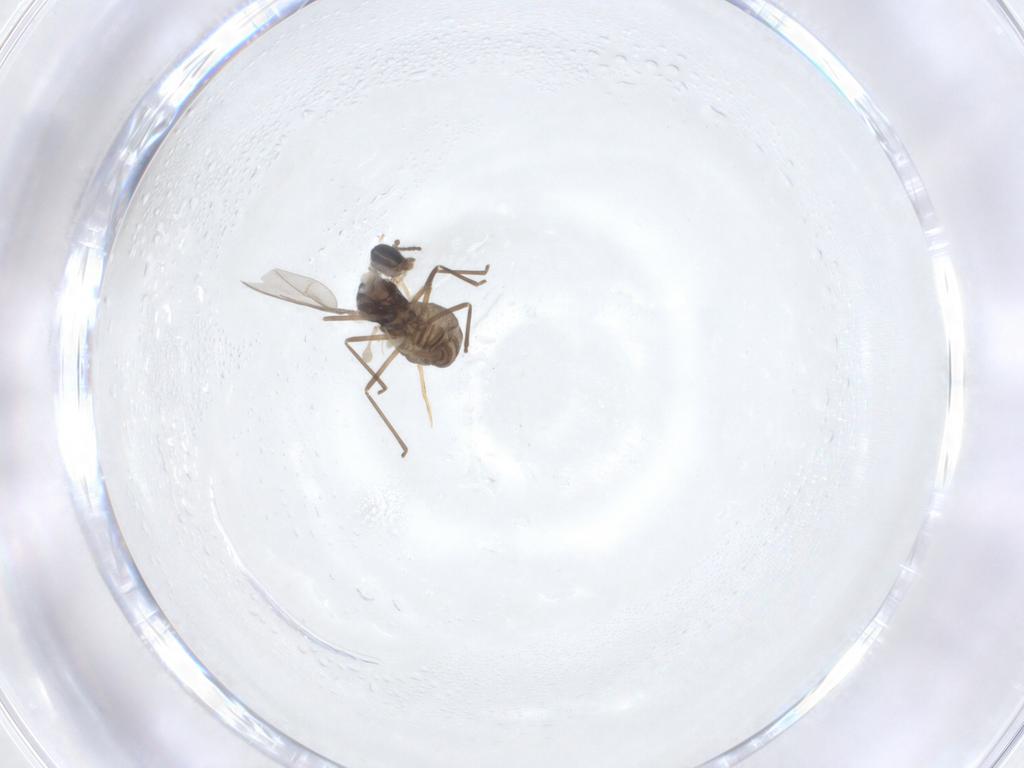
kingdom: Animalia
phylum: Arthropoda
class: Insecta
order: Diptera
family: Cecidomyiidae
